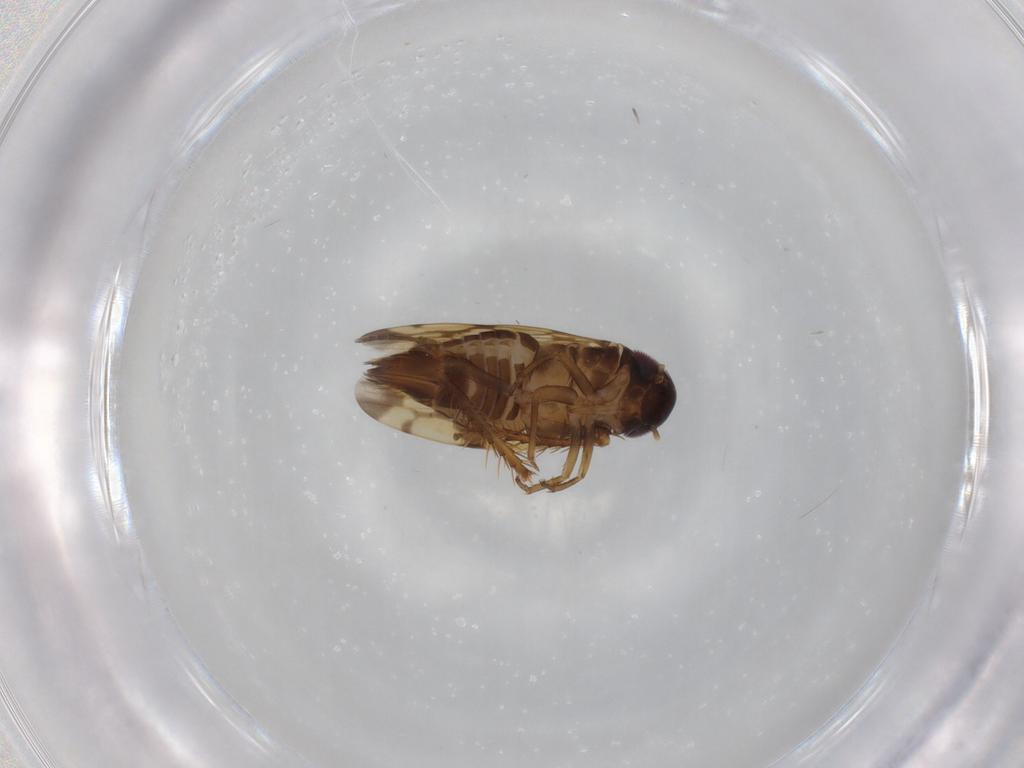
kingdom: Animalia
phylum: Arthropoda
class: Insecta
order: Hemiptera
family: Cicadellidae
